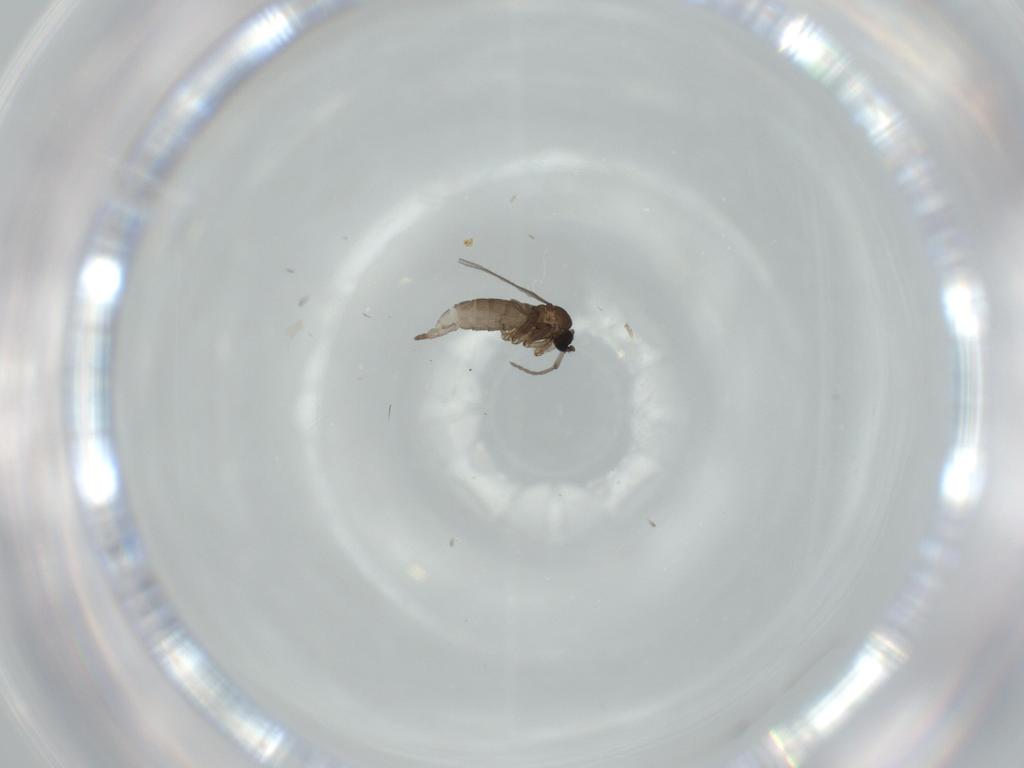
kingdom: Animalia
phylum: Arthropoda
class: Insecta
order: Diptera
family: Sciaridae
